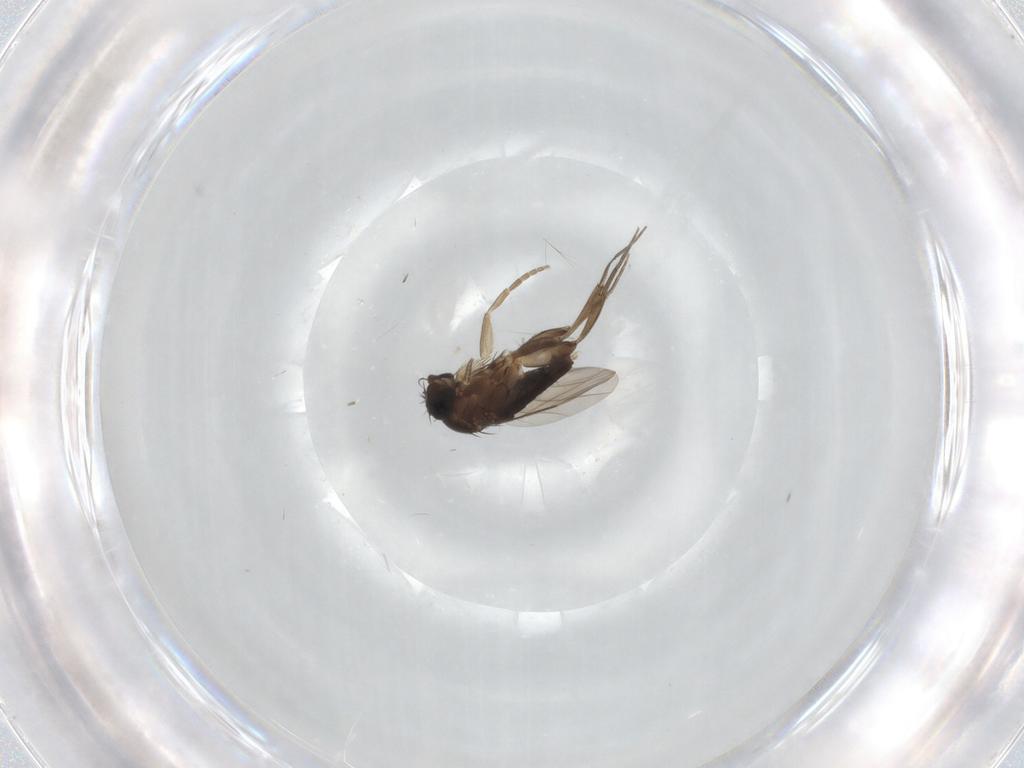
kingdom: Animalia
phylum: Arthropoda
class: Insecta
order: Diptera
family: Phoridae
